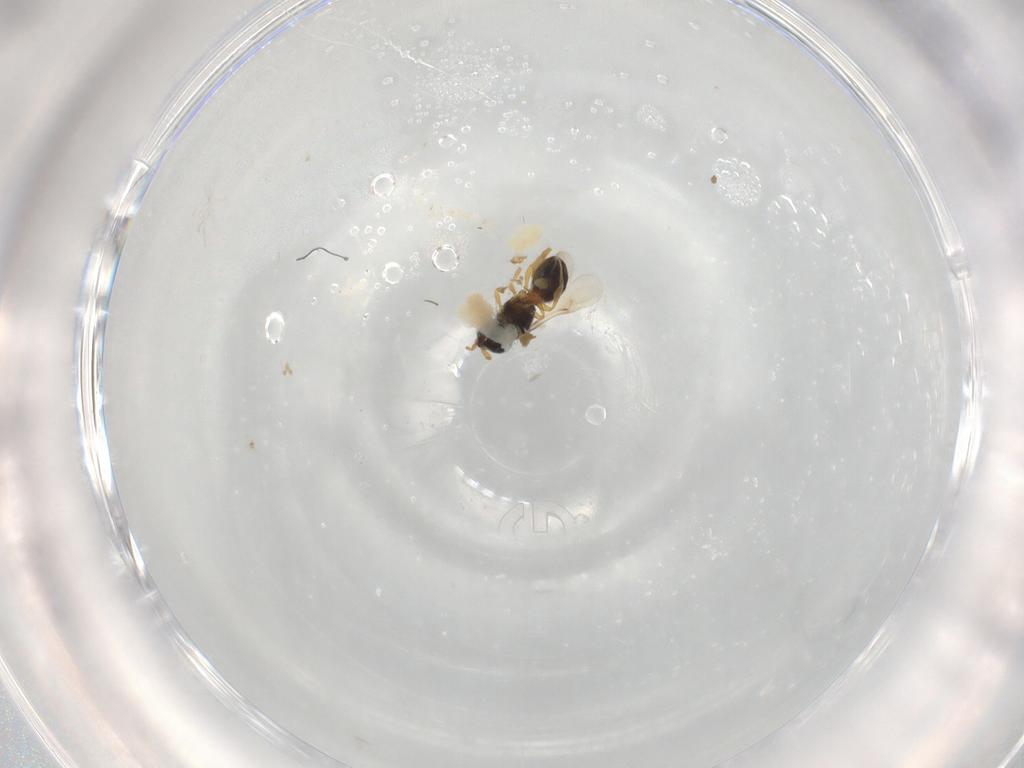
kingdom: Animalia
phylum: Arthropoda
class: Insecta
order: Hymenoptera
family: Scelionidae
